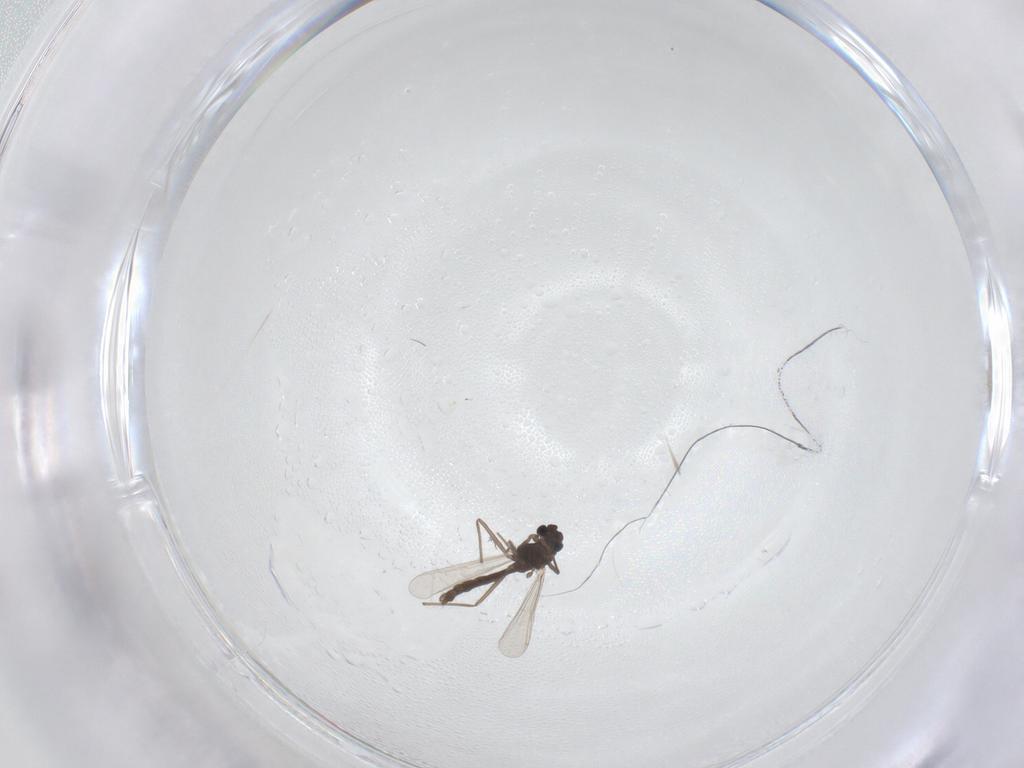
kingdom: Animalia
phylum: Arthropoda
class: Insecta
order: Diptera
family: Chironomidae
